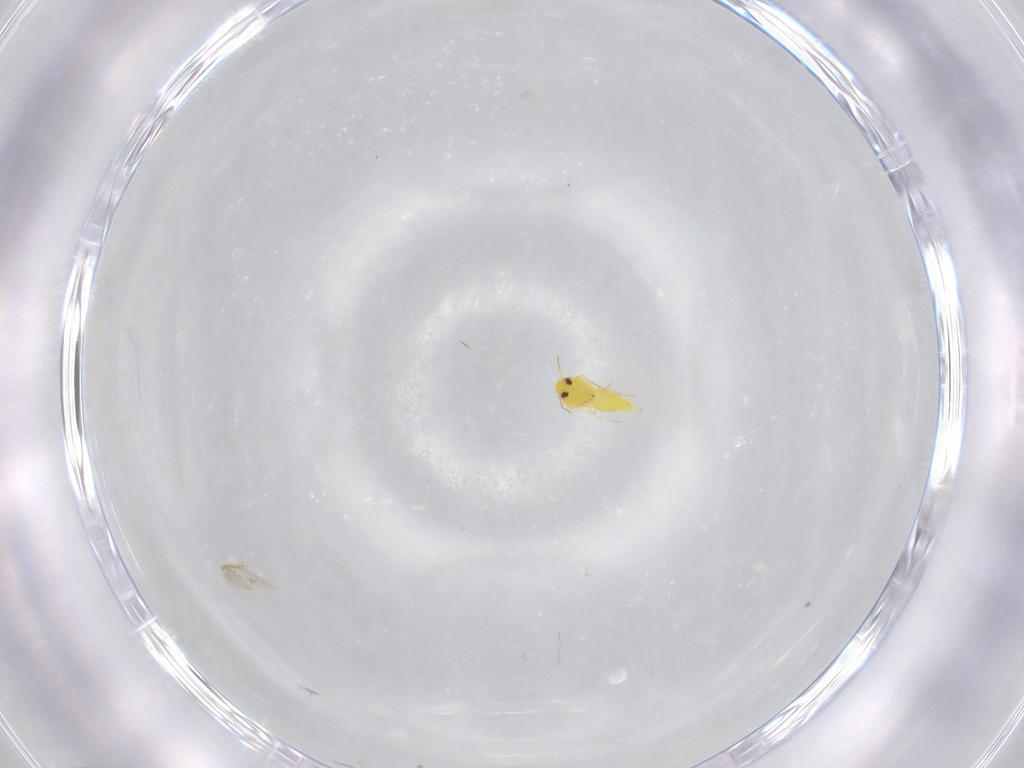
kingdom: Animalia
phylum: Arthropoda
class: Insecta
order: Hemiptera
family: Aleyrodidae
